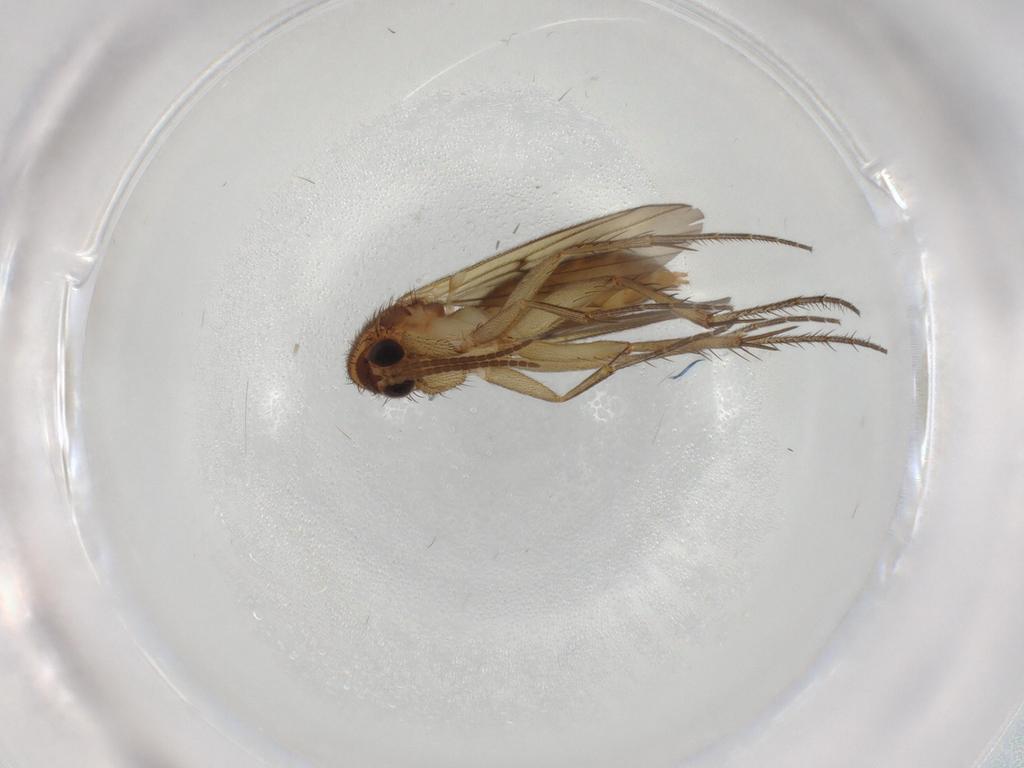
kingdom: Animalia
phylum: Arthropoda
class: Insecta
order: Diptera
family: Mycetophilidae
